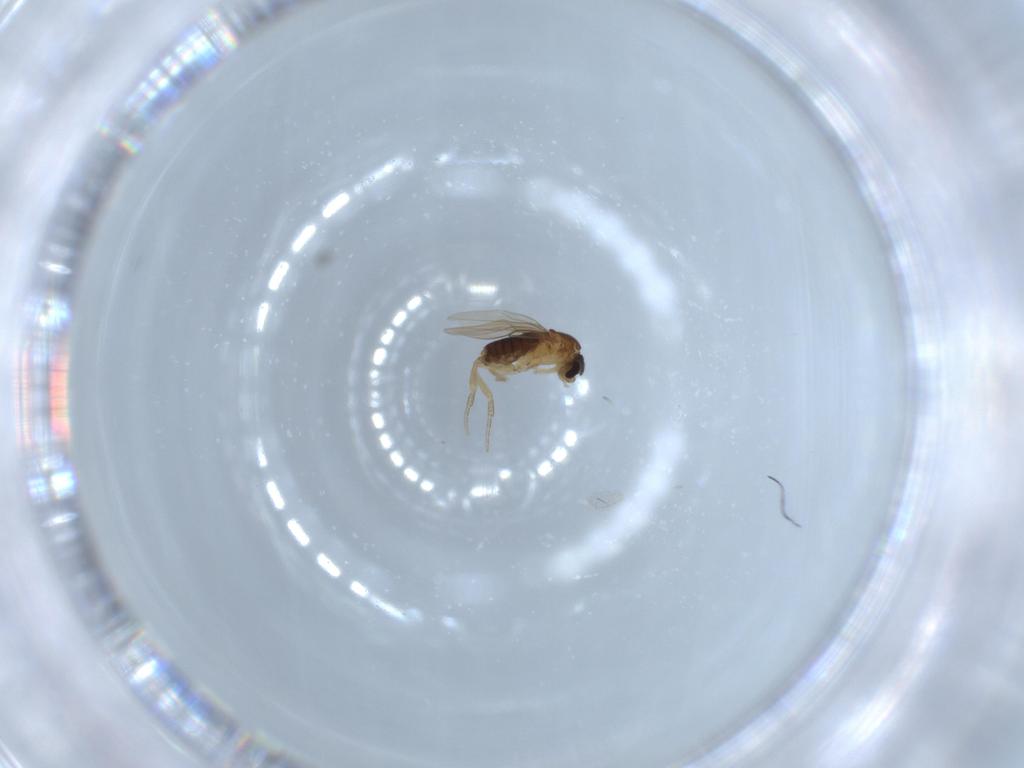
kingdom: Animalia
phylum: Arthropoda
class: Insecta
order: Diptera
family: Phoridae
